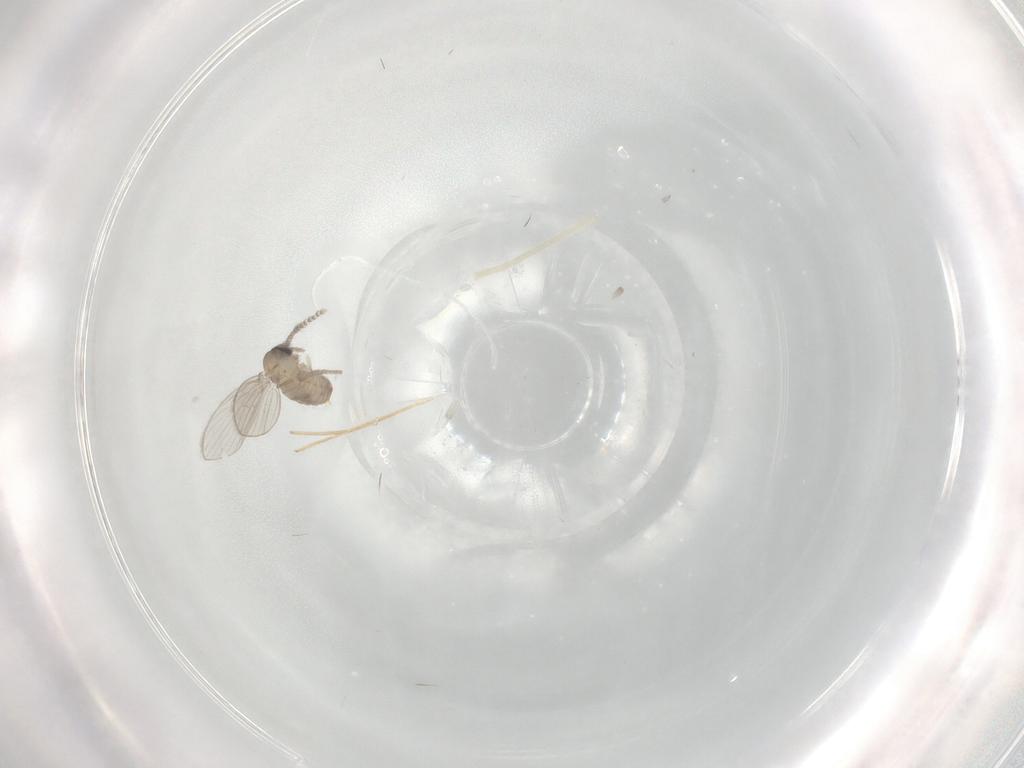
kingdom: Animalia
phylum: Arthropoda
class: Insecta
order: Diptera
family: Psychodidae
